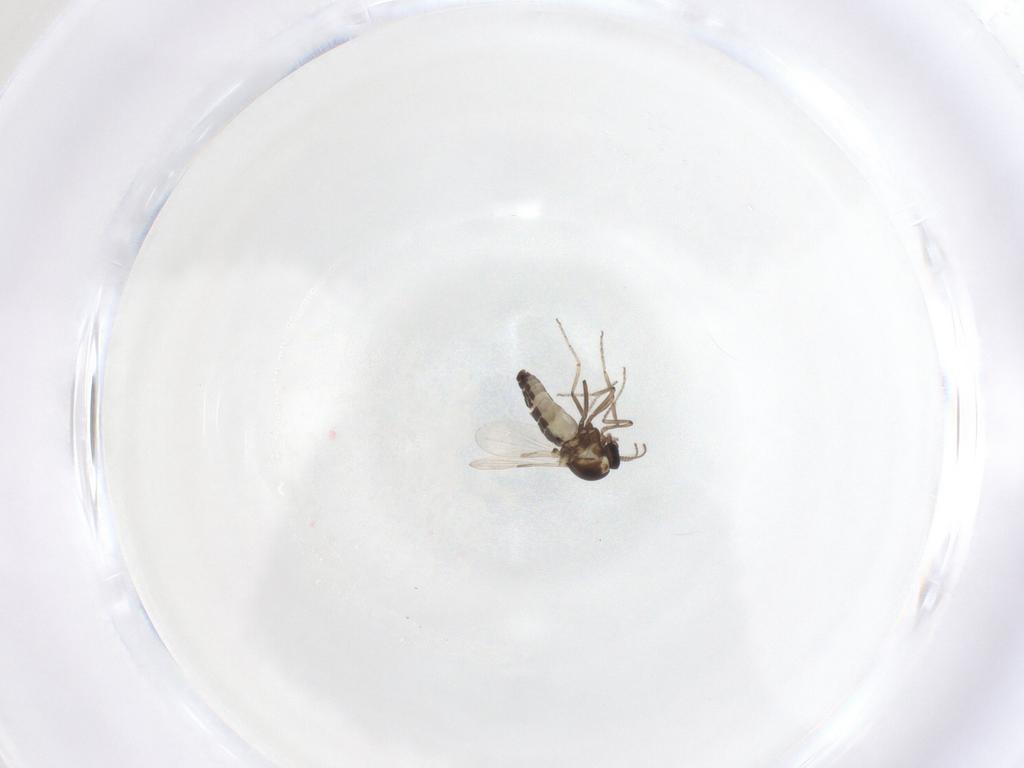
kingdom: Animalia
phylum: Arthropoda
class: Insecta
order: Diptera
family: Ceratopogonidae
